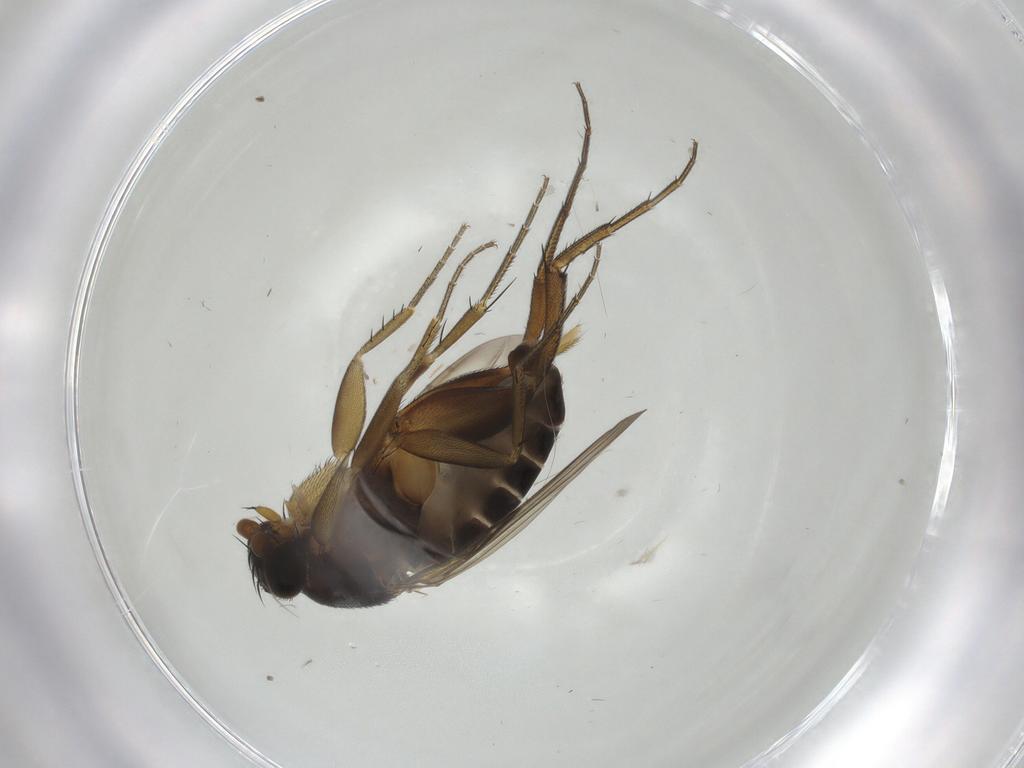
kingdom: Animalia
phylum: Arthropoda
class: Insecta
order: Diptera
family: Phoridae
